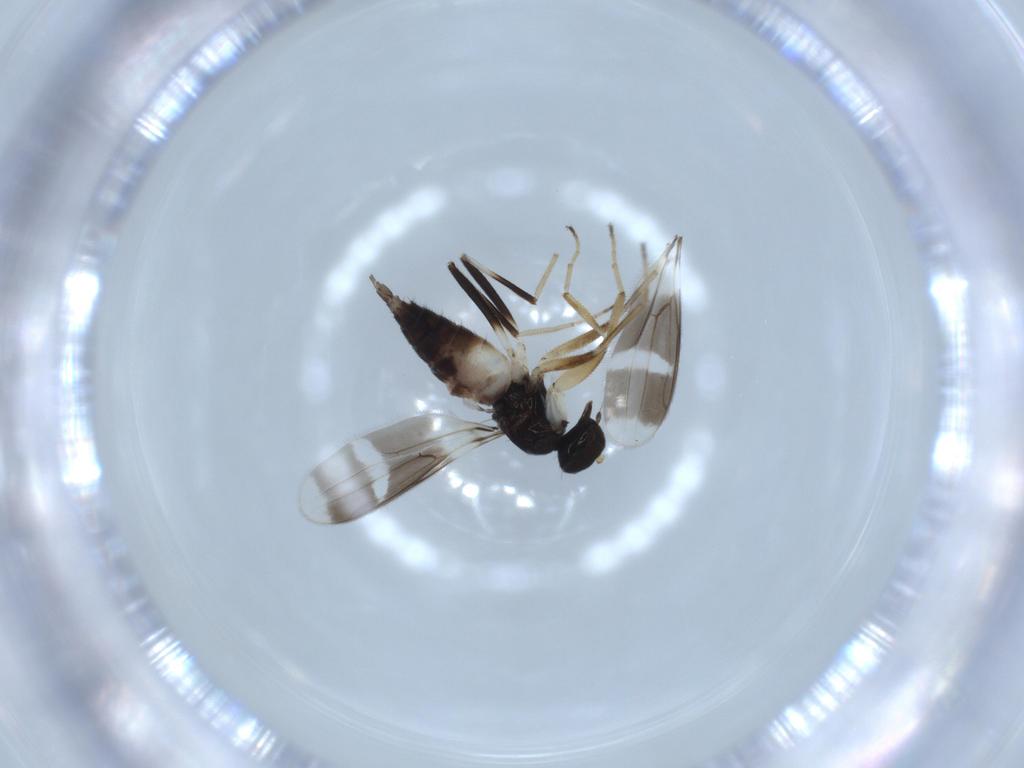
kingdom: Animalia
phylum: Arthropoda
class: Insecta
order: Diptera
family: Hybotidae
